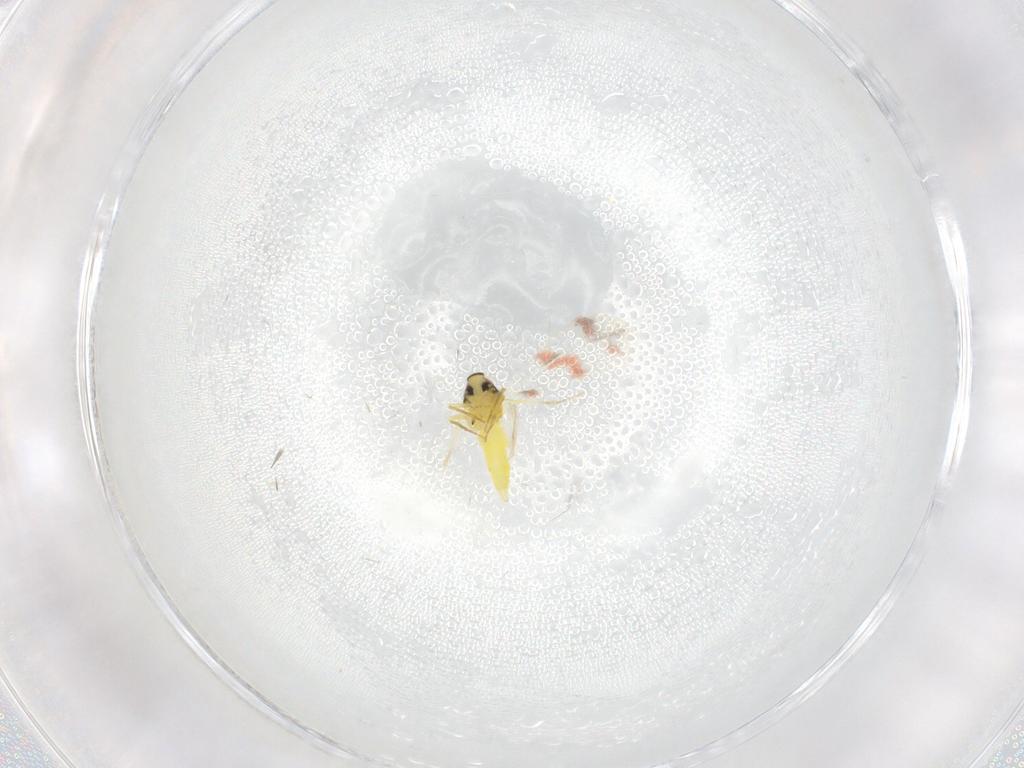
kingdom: Animalia
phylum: Arthropoda
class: Insecta
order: Hemiptera
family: Aleyrodidae
